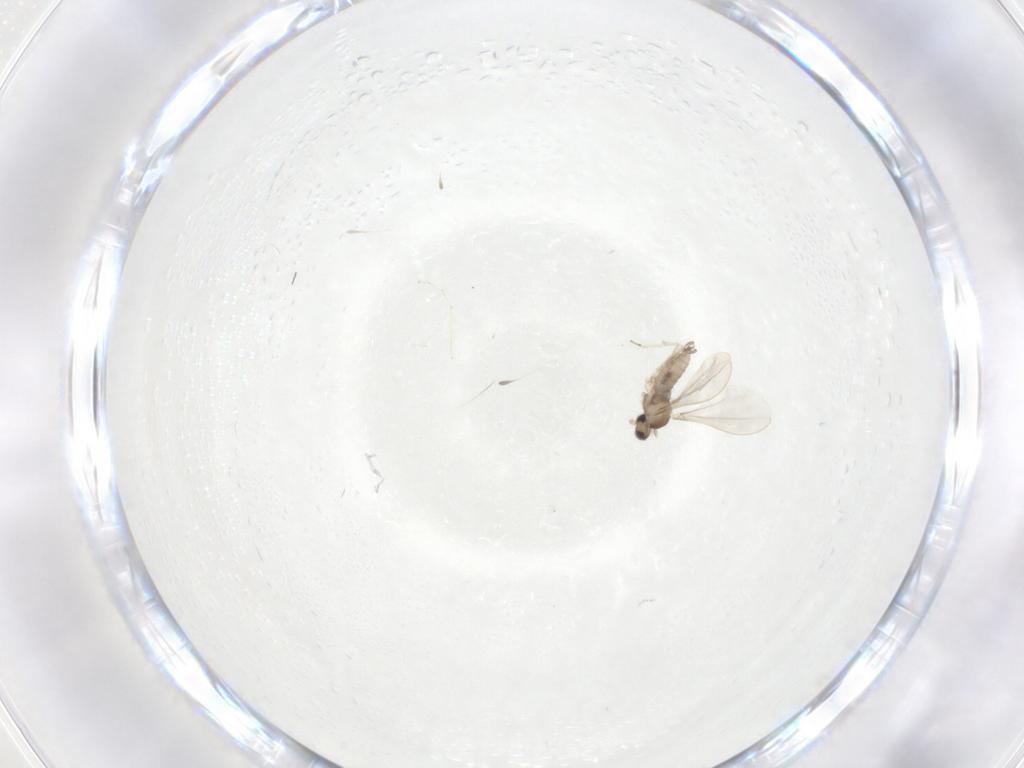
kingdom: Animalia
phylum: Arthropoda
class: Insecta
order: Diptera
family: Cecidomyiidae
